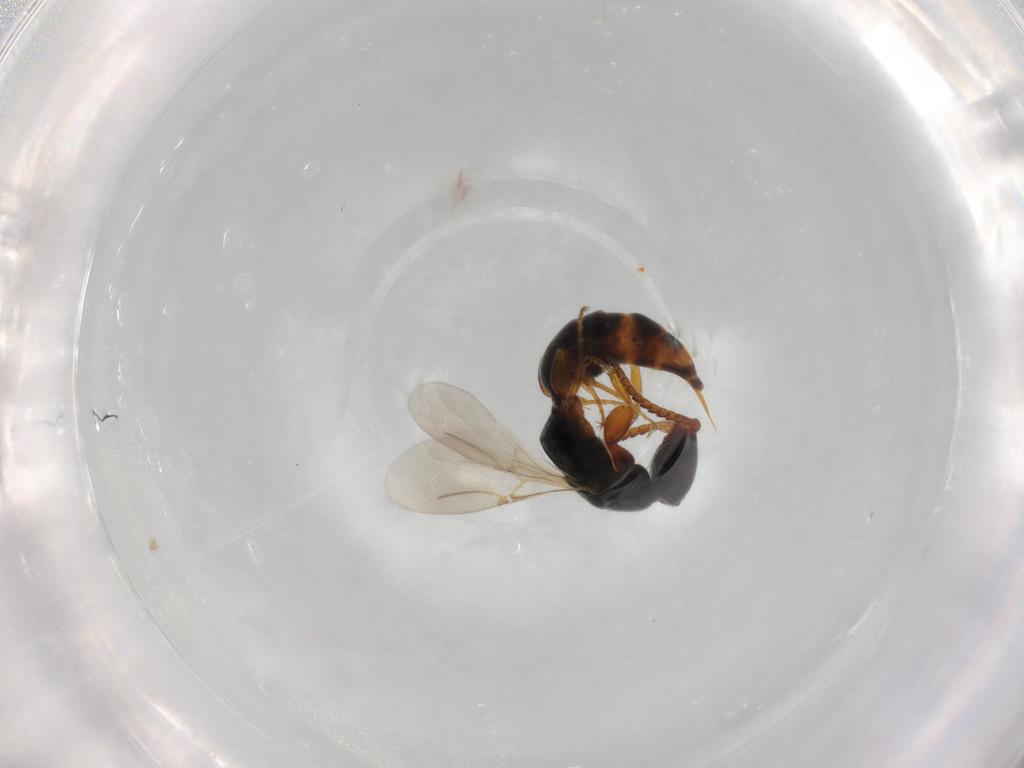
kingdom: Animalia
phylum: Arthropoda
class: Insecta
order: Hymenoptera
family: Bethylidae
